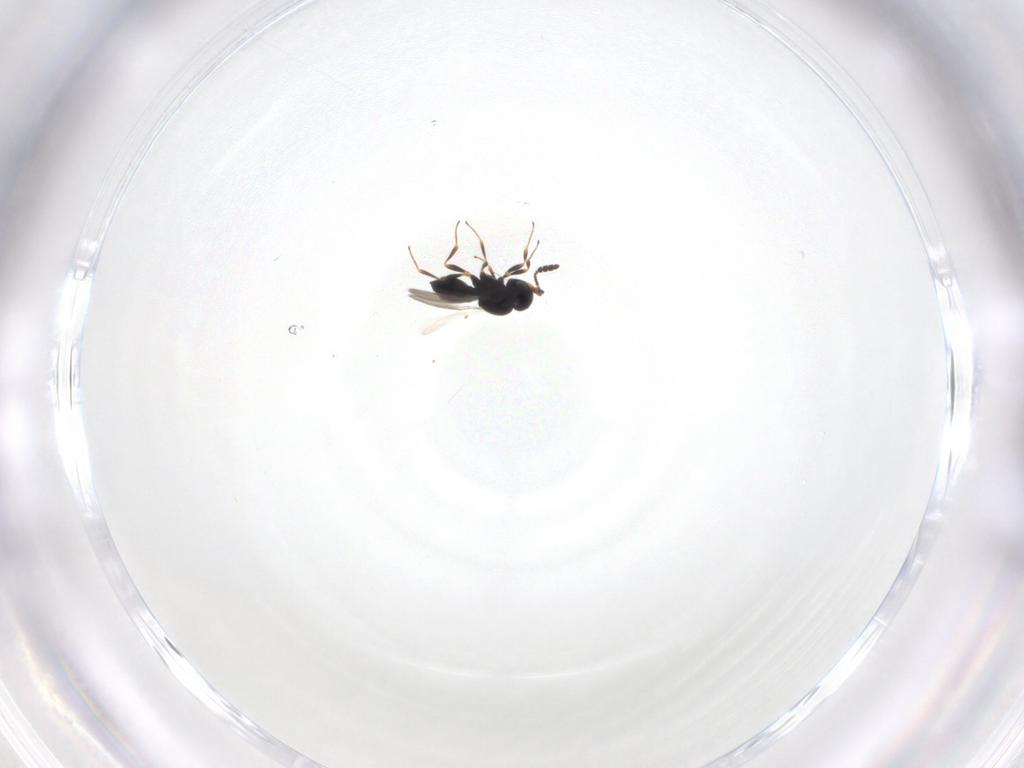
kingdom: Animalia
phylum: Arthropoda
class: Insecta
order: Hymenoptera
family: Scelionidae
